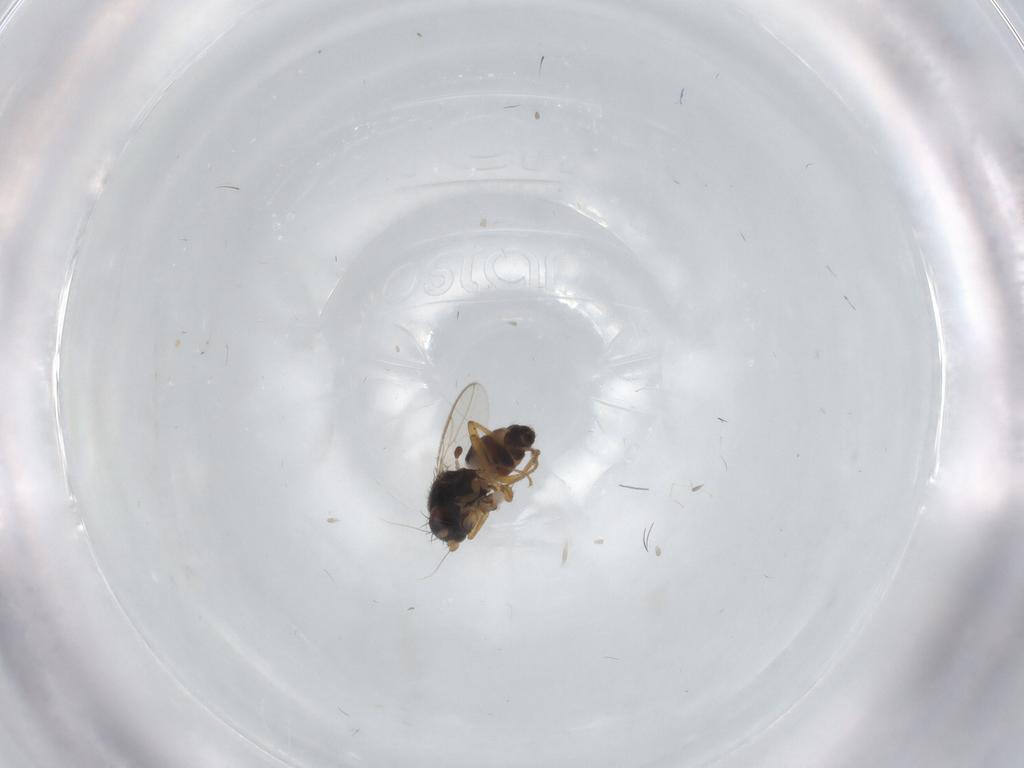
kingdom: Animalia
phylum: Arthropoda
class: Insecta
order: Diptera
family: Sphaeroceridae
